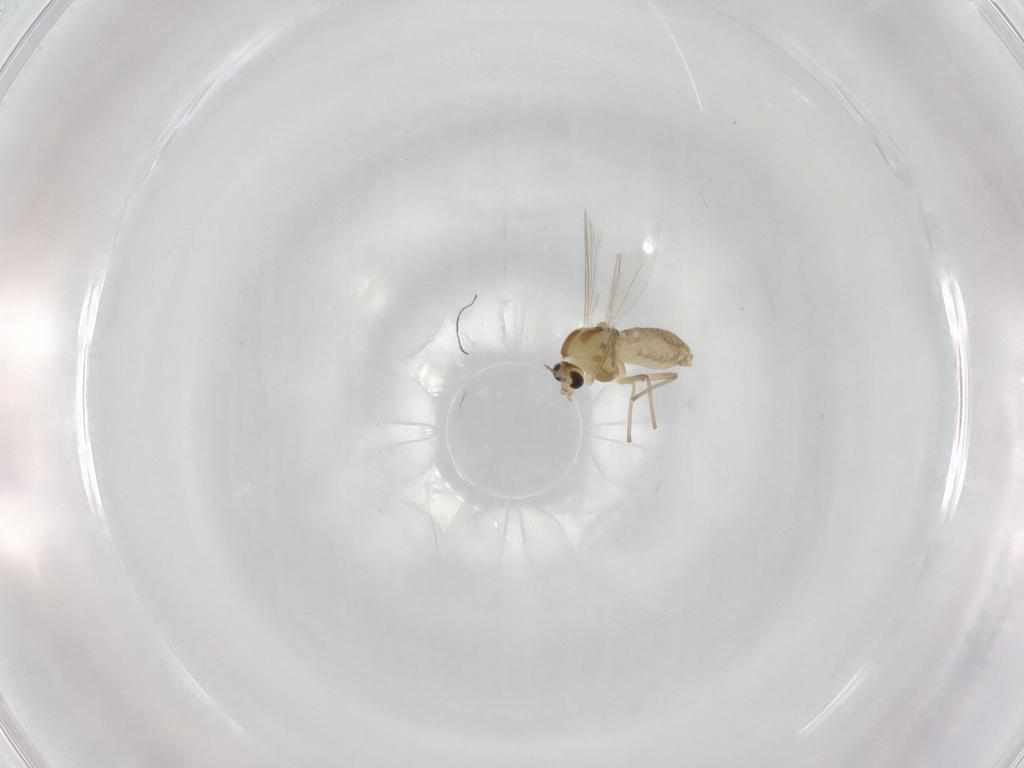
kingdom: Animalia
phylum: Arthropoda
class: Insecta
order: Diptera
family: Chironomidae
